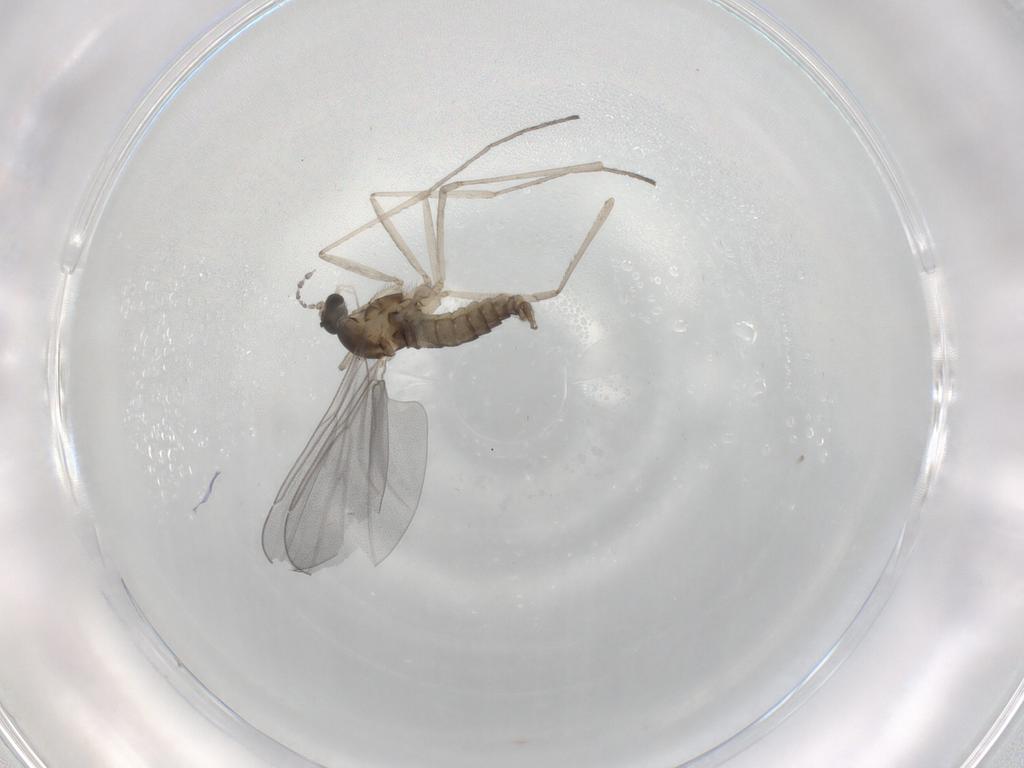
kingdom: Animalia
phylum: Arthropoda
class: Insecta
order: Diptera
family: Cecidomyiidae
